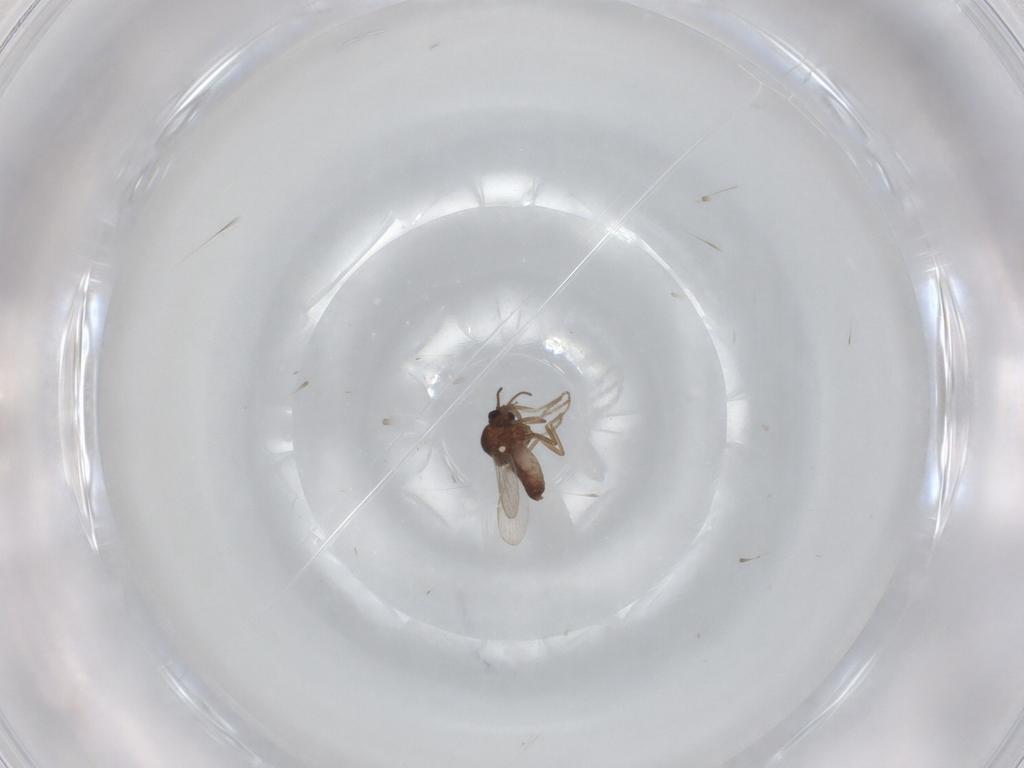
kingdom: Animalia
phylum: Arthropoda
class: Insecta
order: Diptera
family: Ceratopogonidae
